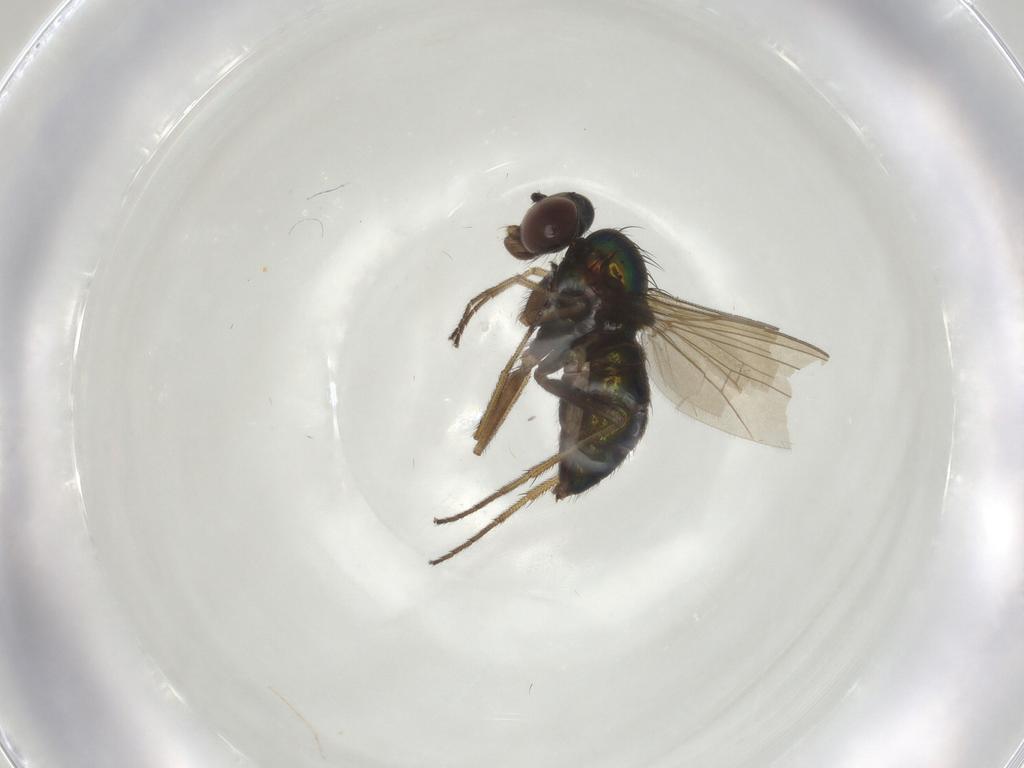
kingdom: Animalia
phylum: Arthropoda
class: Insecta
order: Diptera
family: Dolichopodidae
